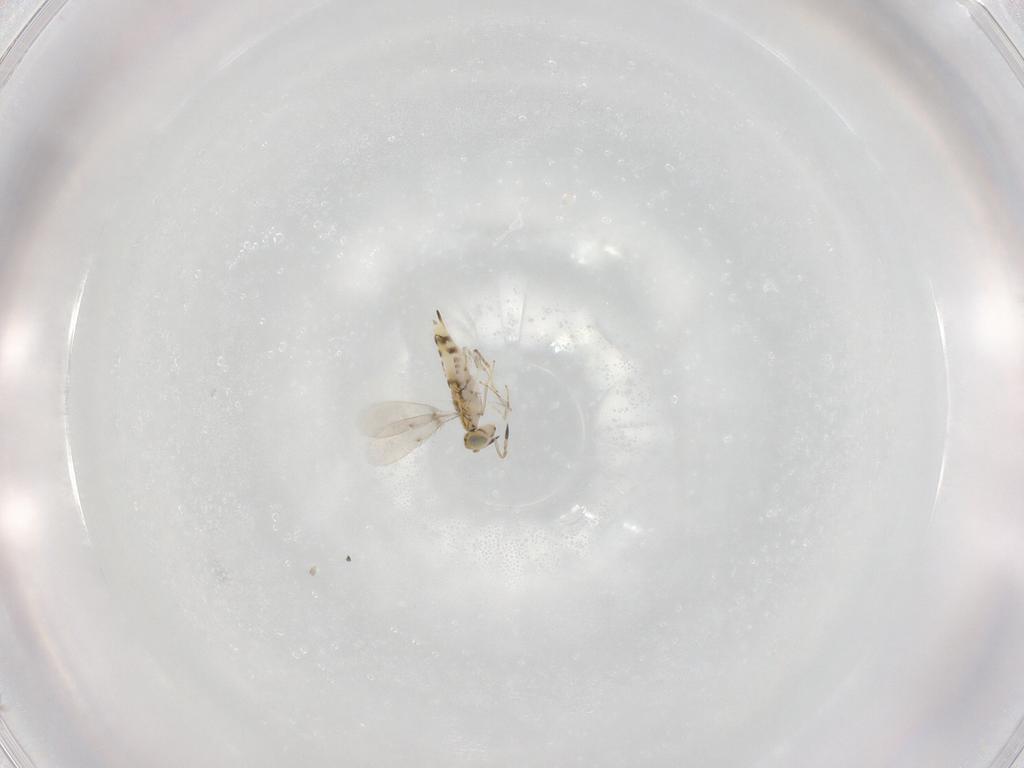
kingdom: Animalia
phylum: Arthropoda
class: Insecta
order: Hymenoptera
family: Aphelinidae
